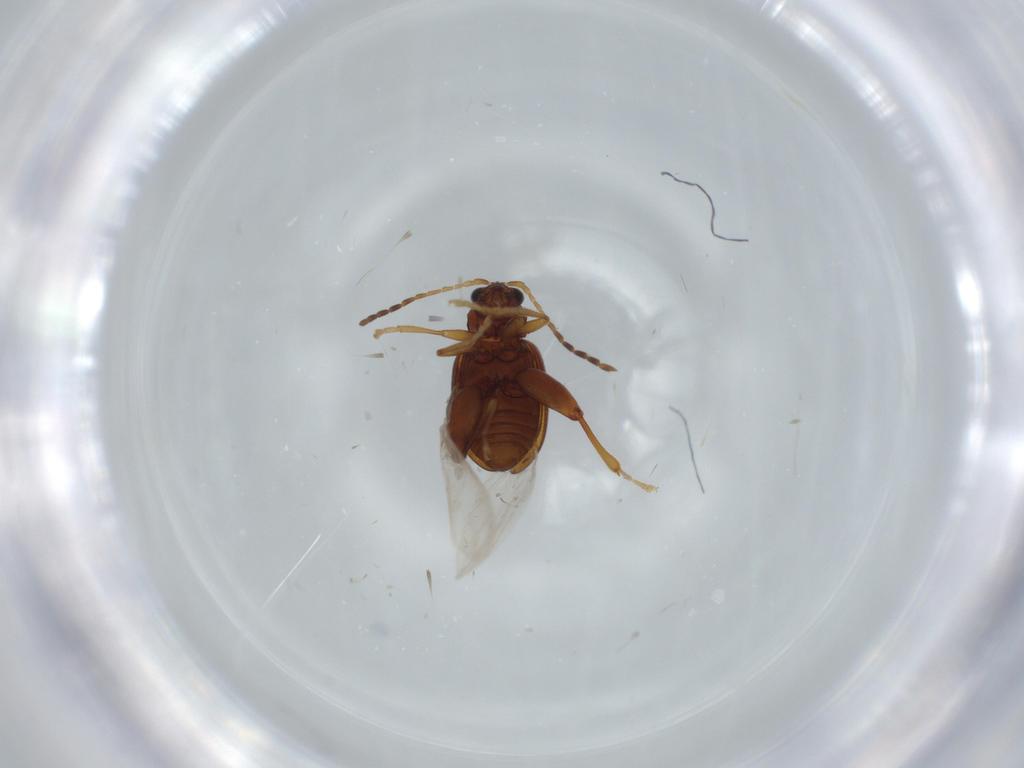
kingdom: Animalia
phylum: Arthropoda
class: Insecta
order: Coleoptera
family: Chrysomelidae
